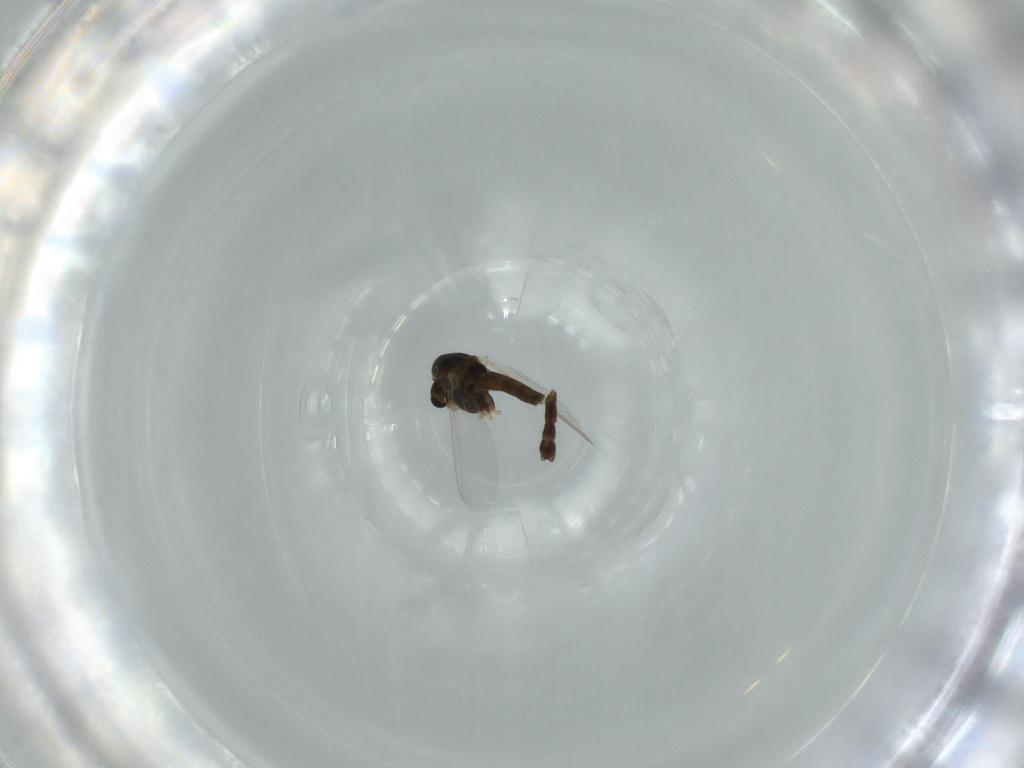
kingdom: Animalia
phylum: Arthropoda
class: Insecta
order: Diptera
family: Chironomidae
